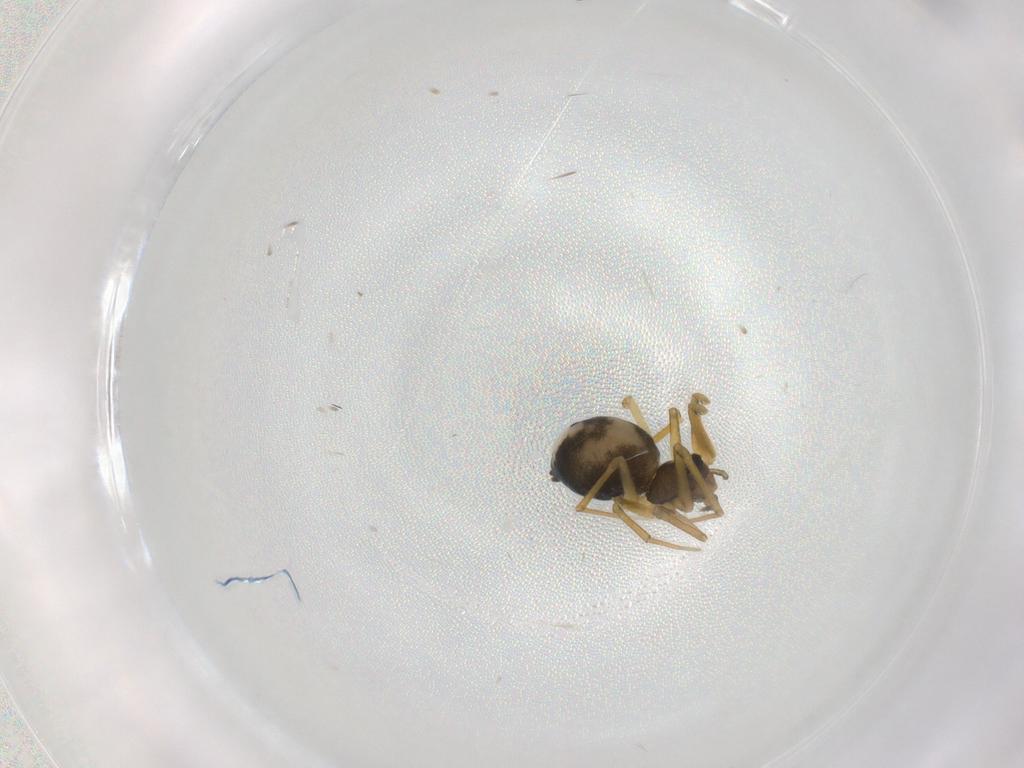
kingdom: Animalia
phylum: Arthropoda
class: Arachnida
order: Araneae
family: Linyphiidae
